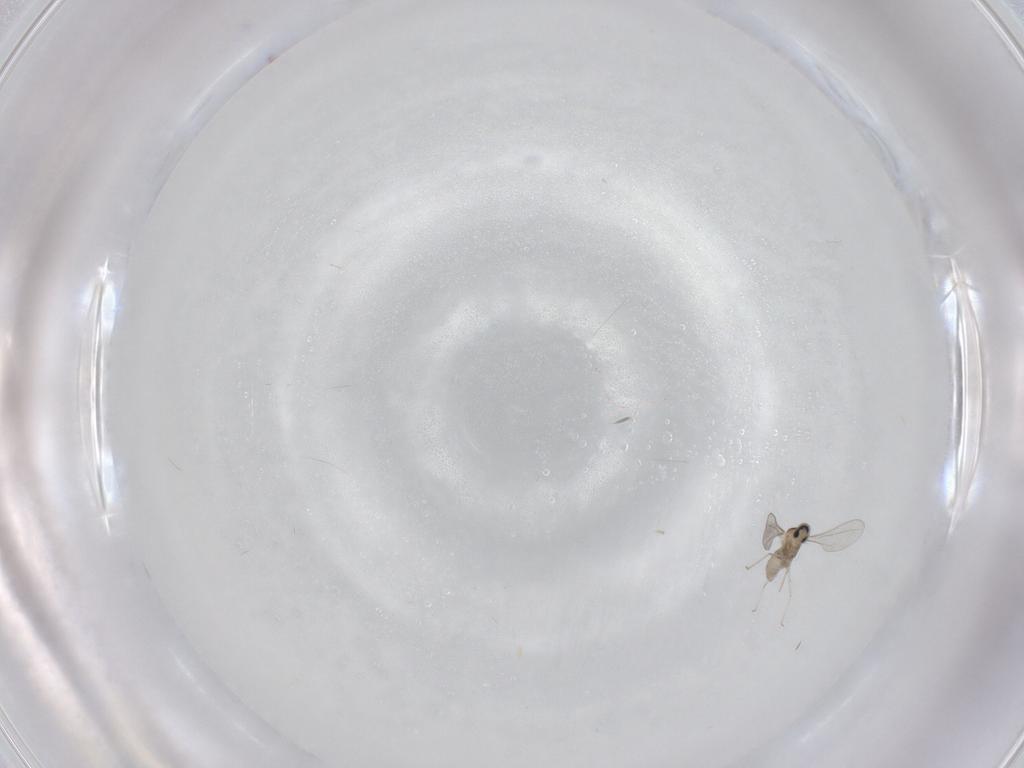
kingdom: Animalia
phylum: Arthropoda
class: Insecta
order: Diptera
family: Cecidomyiidae
